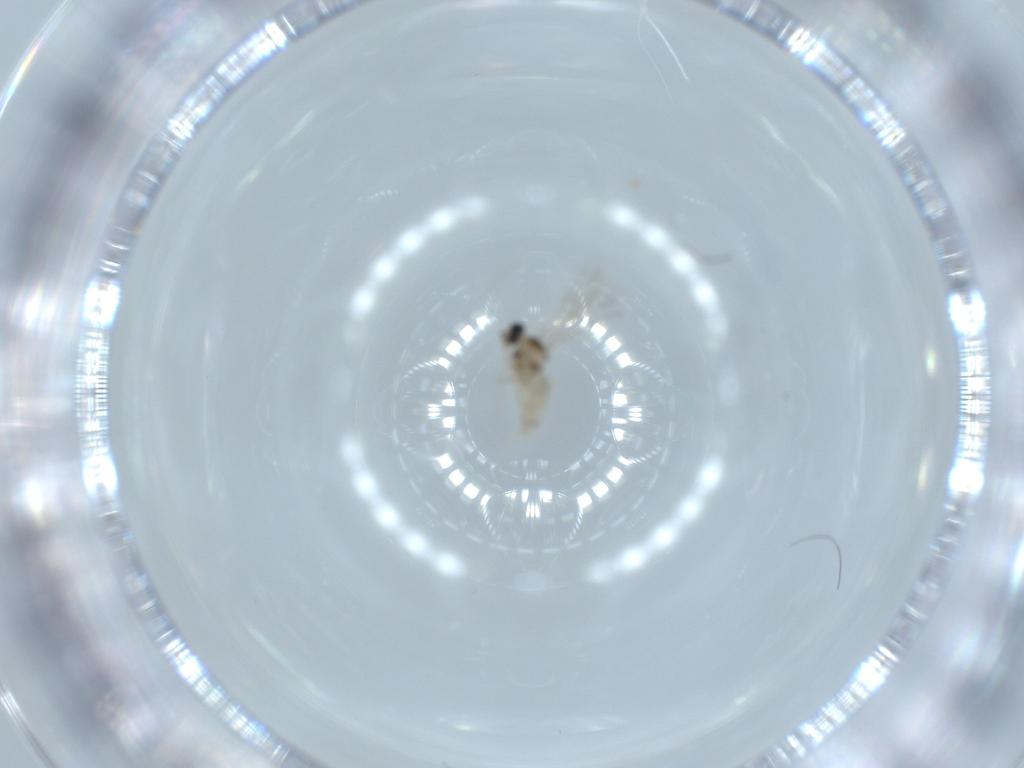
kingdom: Animalia
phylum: Arthropoda
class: Insecta
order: Diptera
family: Cecidomyiidae
